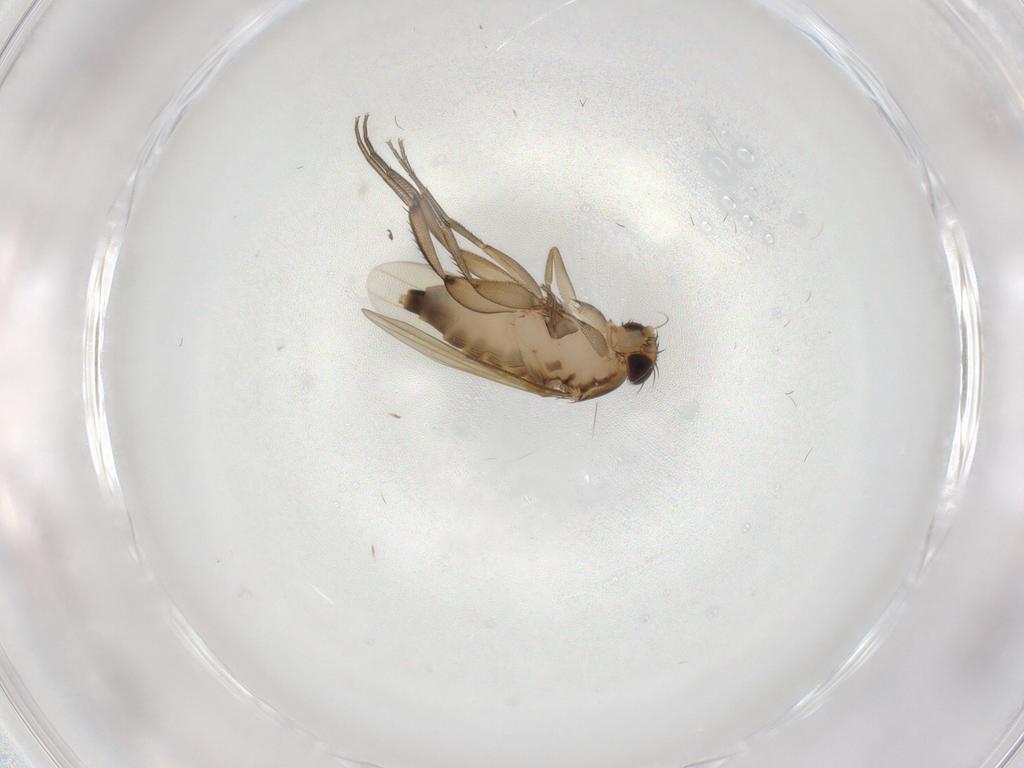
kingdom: Animalia
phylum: Arthropoda
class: Insecta
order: Diptera
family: Phoridae
